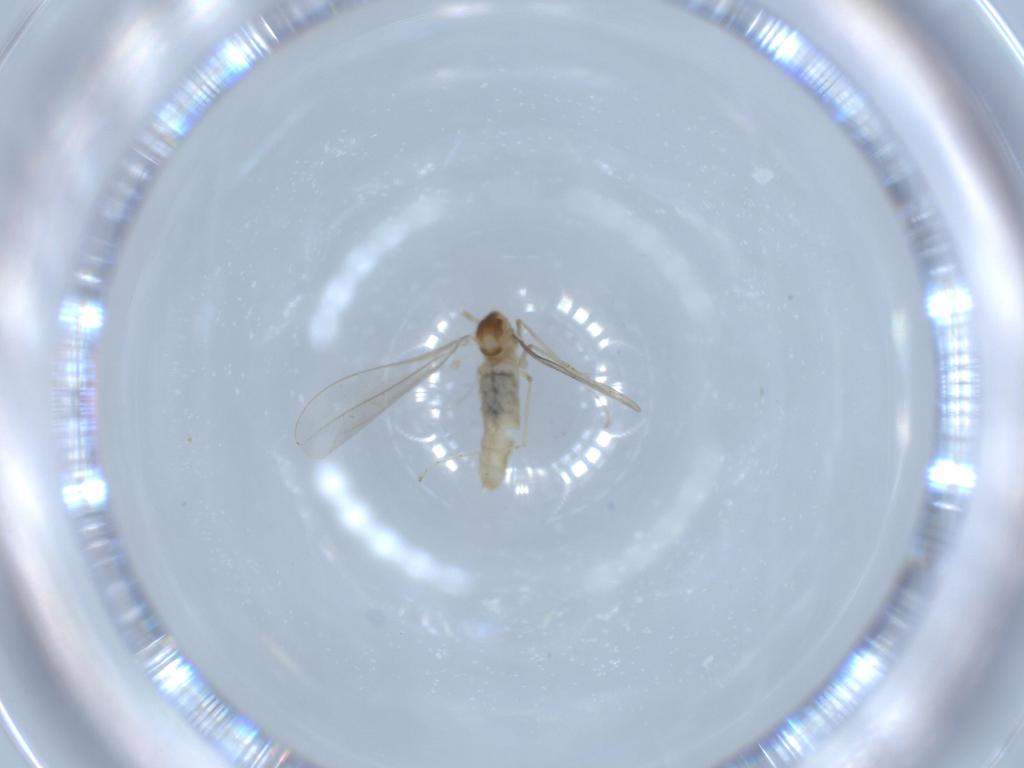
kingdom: Animalia
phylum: Arthropoda
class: Insecta
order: Diptera
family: Cecidomyiidae
